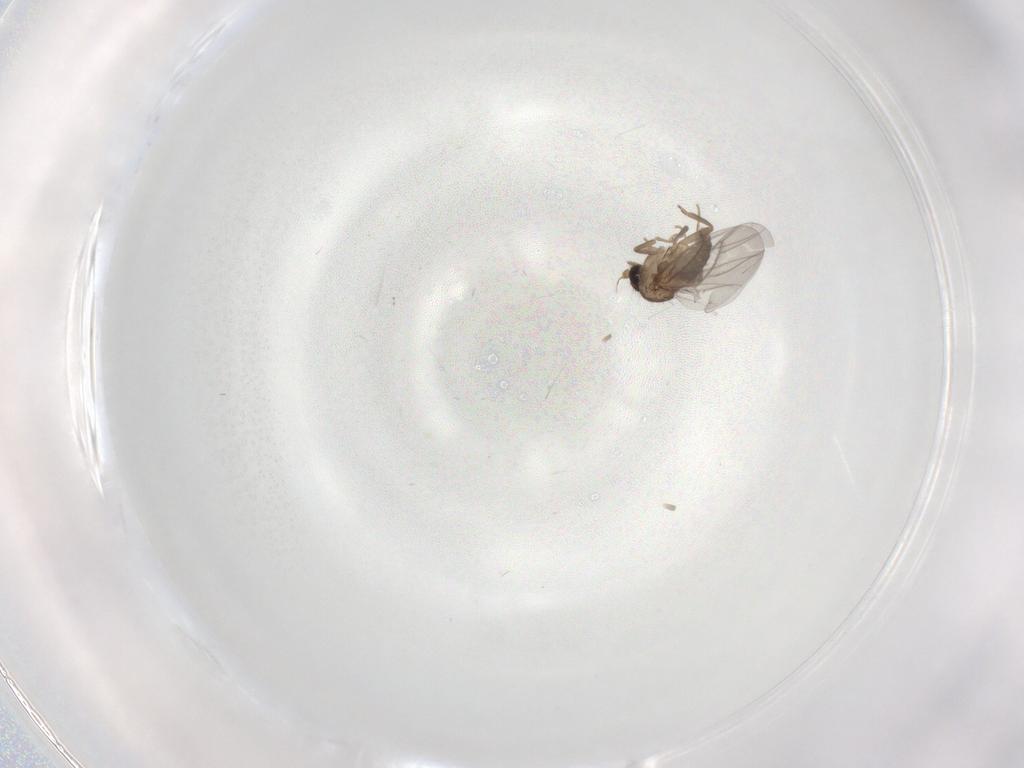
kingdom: Animalia
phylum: Arthropoda
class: Insecta
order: Diptera
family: Cecidomyiidae
